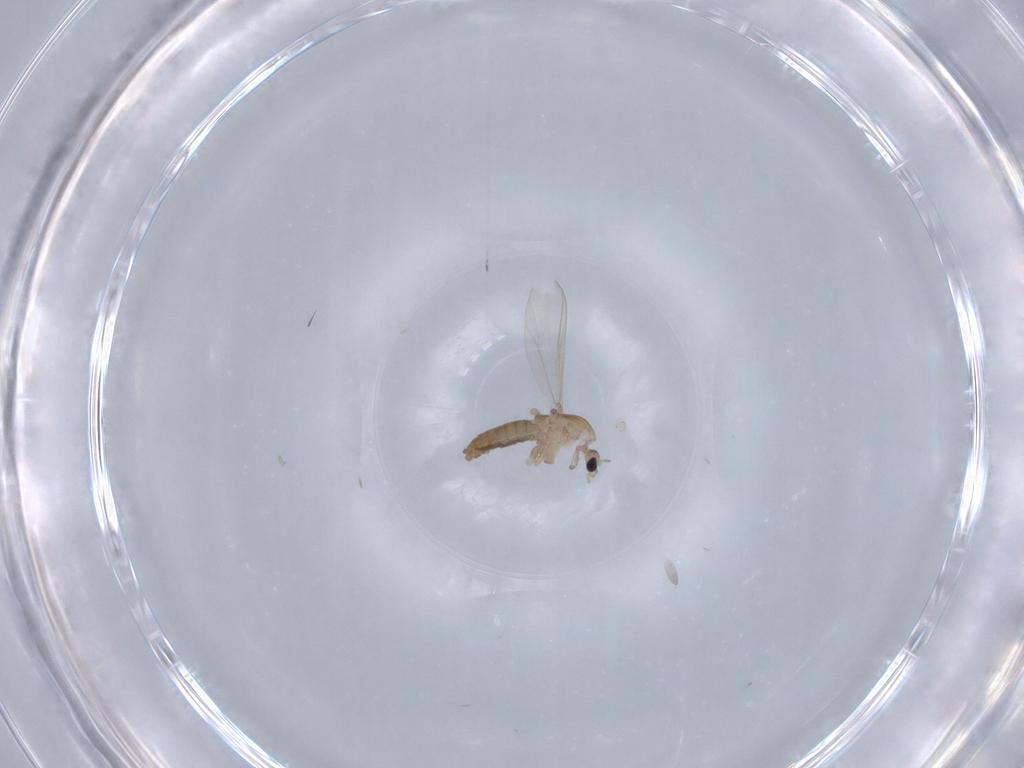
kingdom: Animalia
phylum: Arthropoda
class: Insecta
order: Diptera
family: Chironomidae
